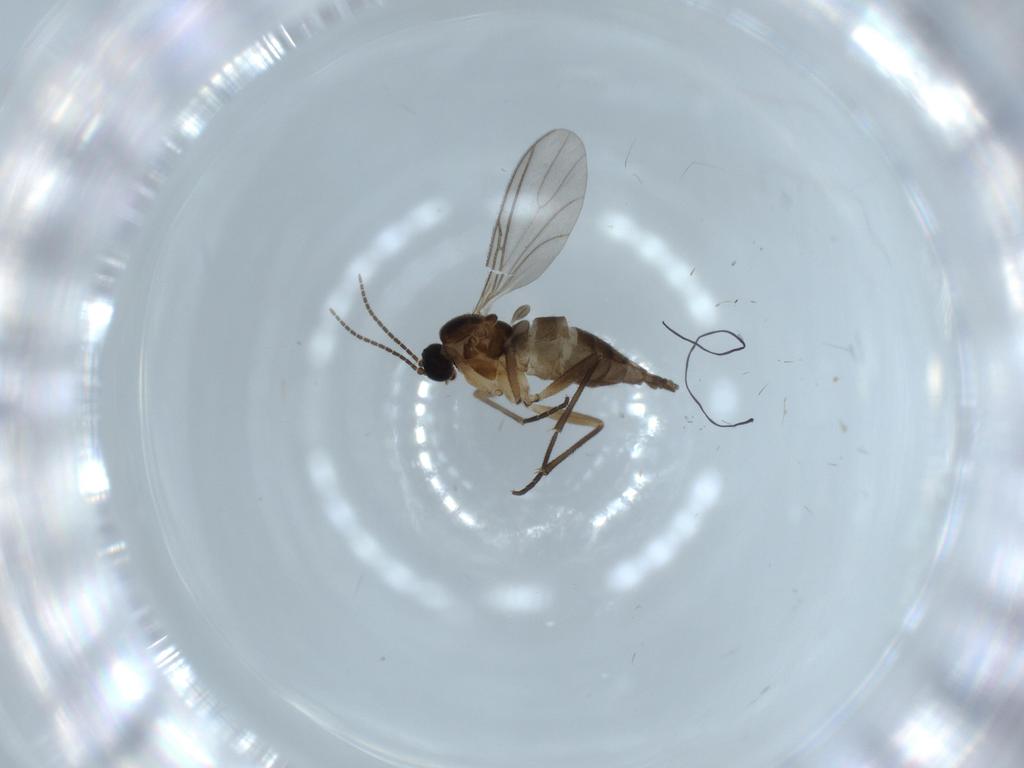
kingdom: Animalia
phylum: Arthropoda
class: Insecta
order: Diptera
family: Sciaridae
